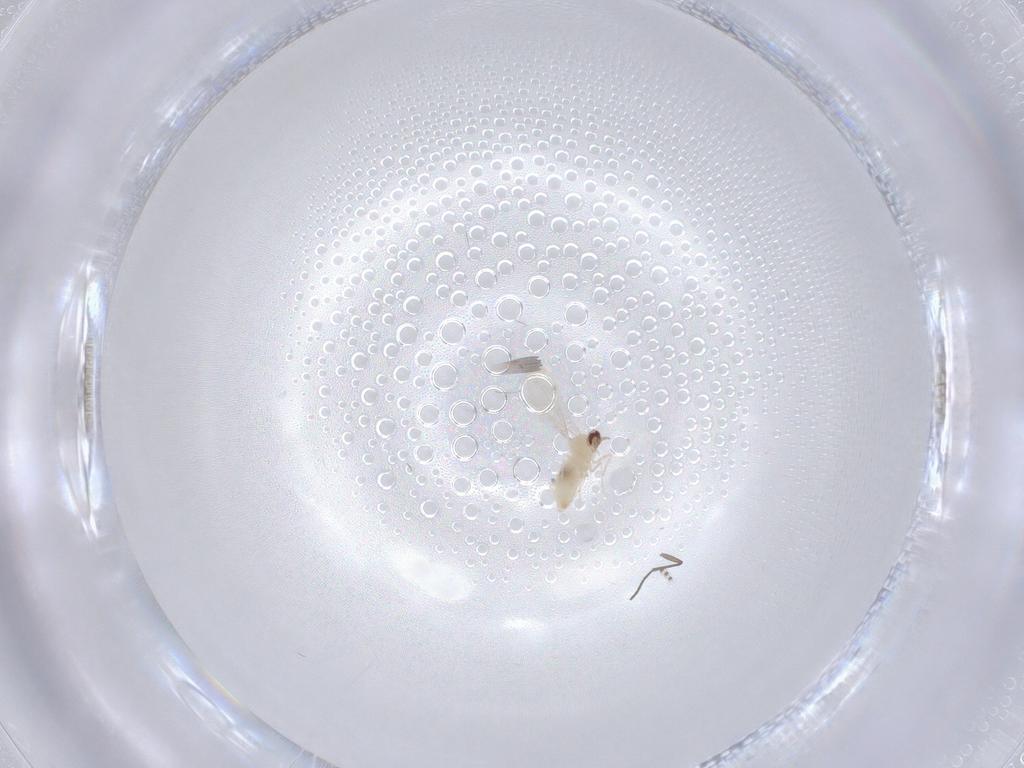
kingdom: Animalia
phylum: Arthropoda
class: Insecta
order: Diptera
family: Cecidomyiidae
